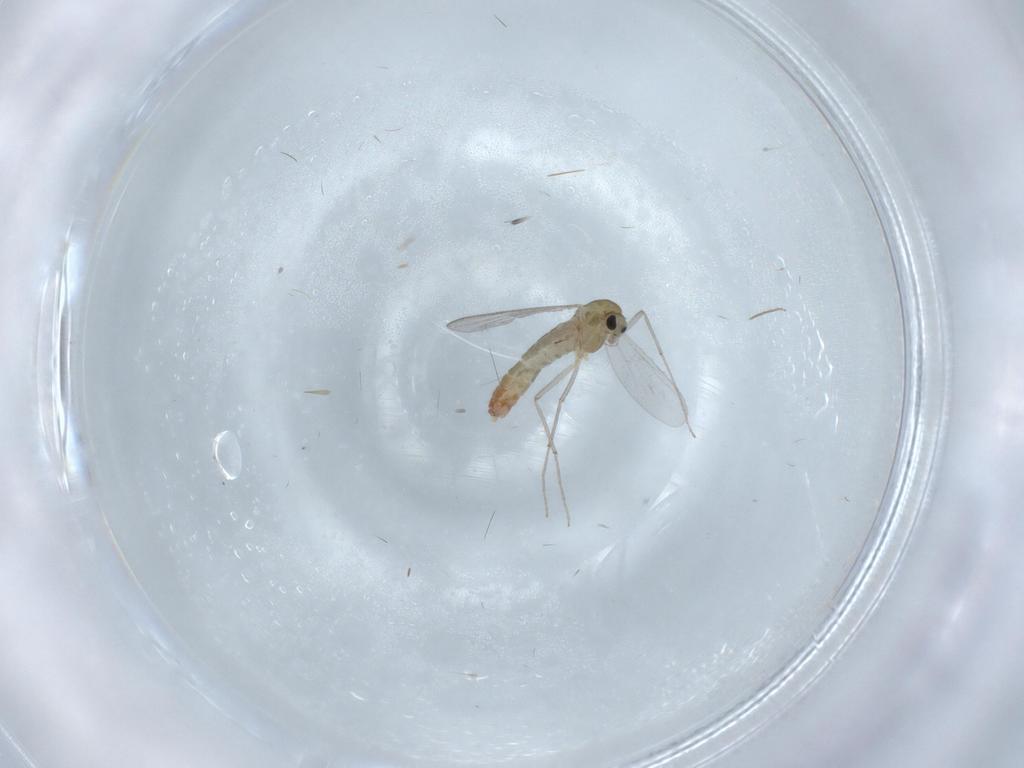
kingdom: Animalia
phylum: Arthropoda
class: Insecta
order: Diptera
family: Chironomidae
